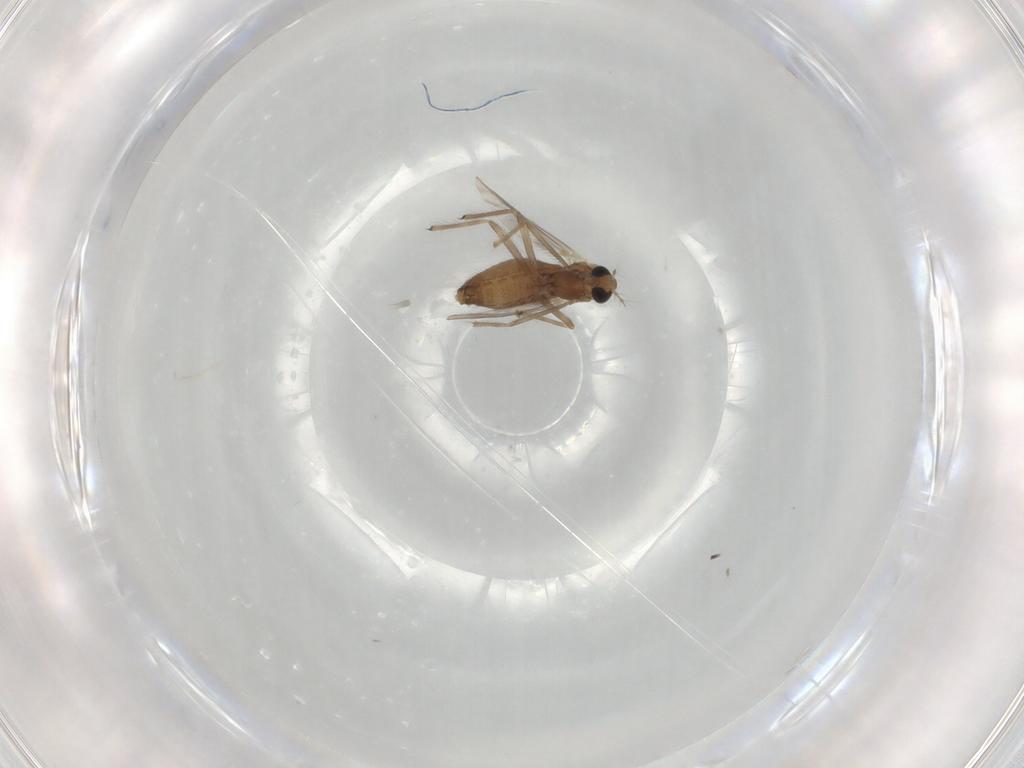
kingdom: Animalia
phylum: Arthropoda
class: Insecta
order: Diptera
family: Chironomidae
